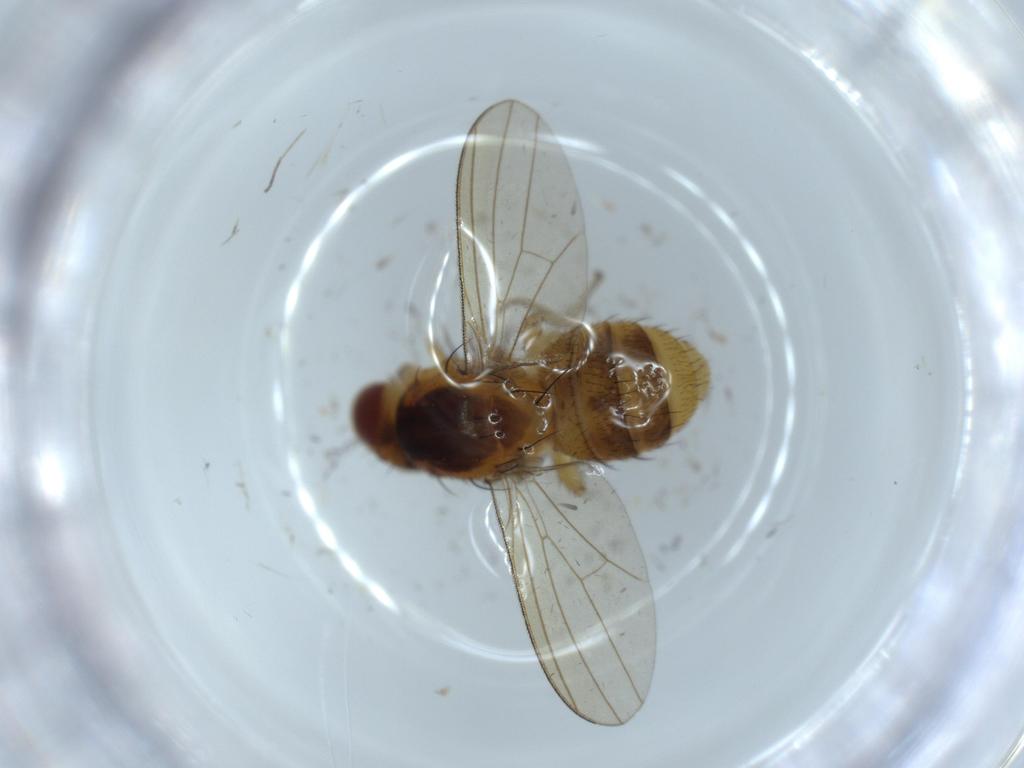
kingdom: Animalia
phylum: Arthropoda
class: Insecta
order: Diptera
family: Lauxaniidae
